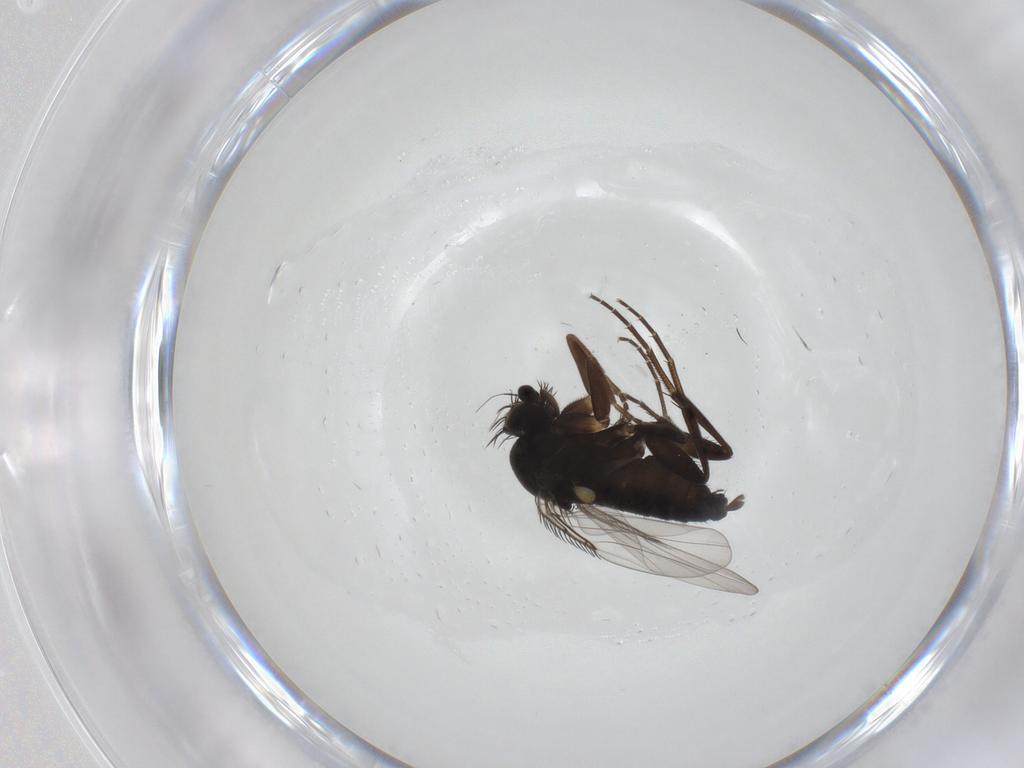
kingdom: Animalia
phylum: Arthropoda
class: Insecta
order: Diptera
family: Phoridae
